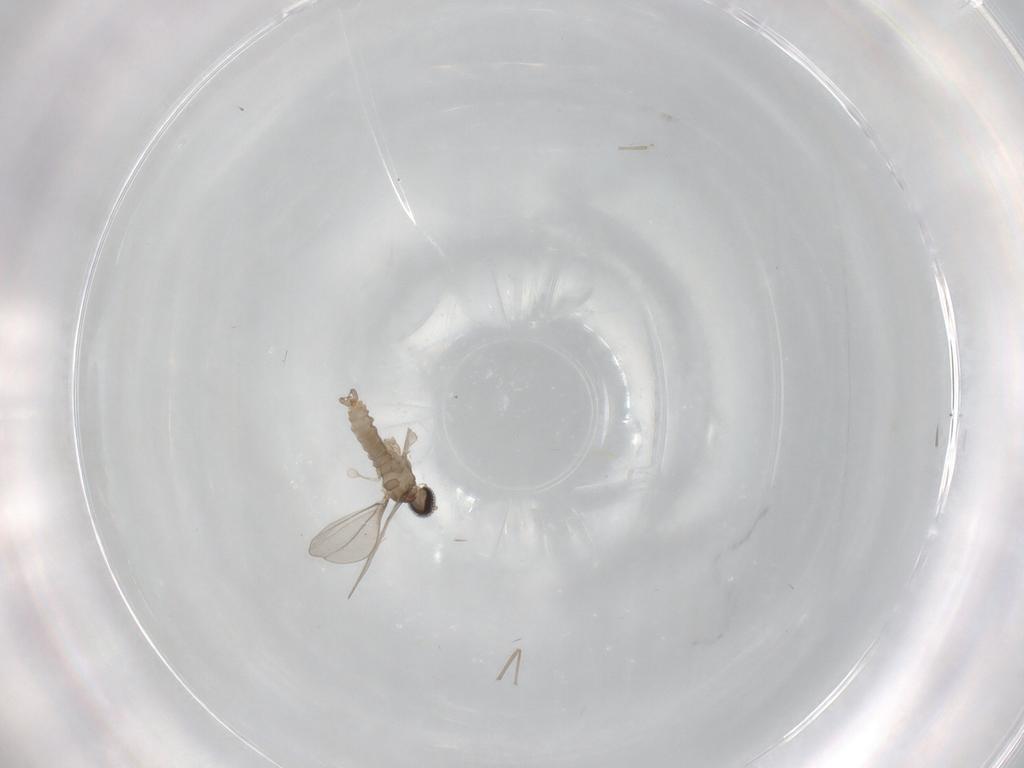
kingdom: Animalia
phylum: Arthropoda
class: Insecta
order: Diptera
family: Cecidomyiidae
